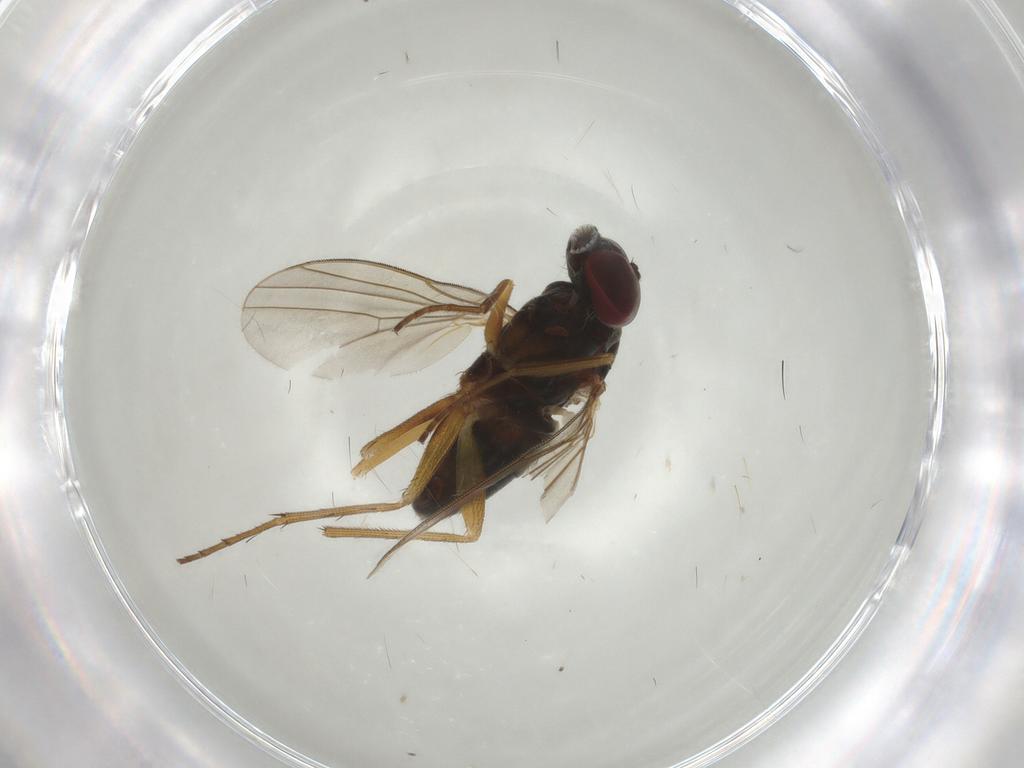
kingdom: Animalia
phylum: Arthropoda
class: Insecta
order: Diptera
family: Dolichopodidae
